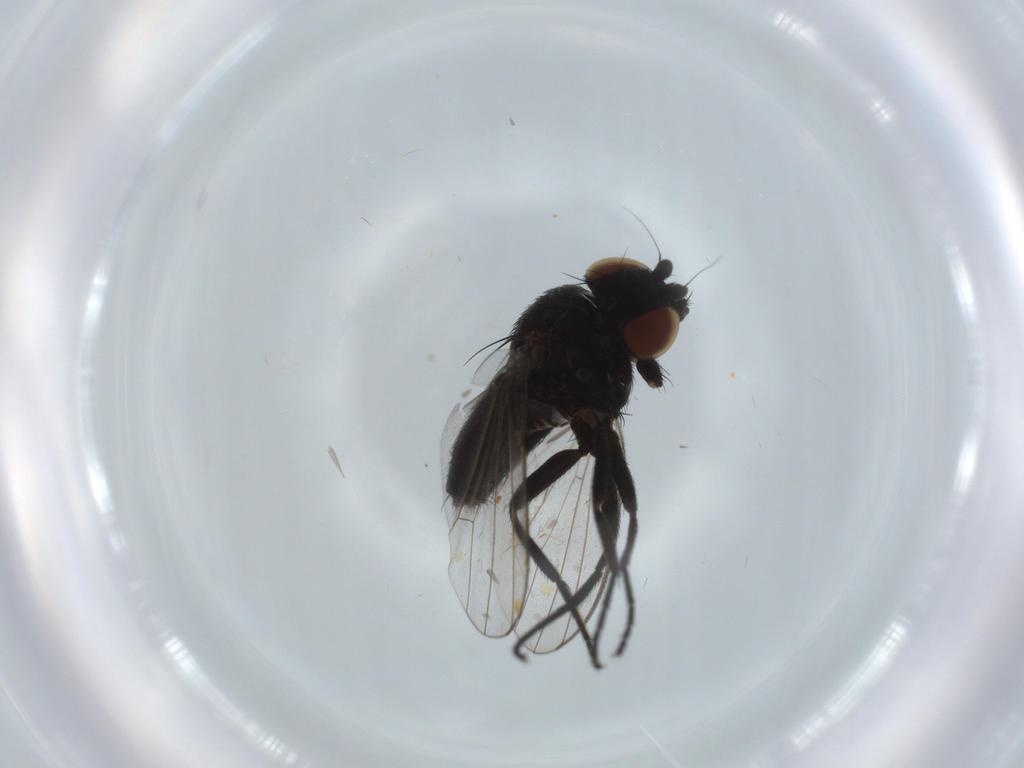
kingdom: Animalia
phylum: Arthropoda
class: Insecta
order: Diptera
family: Milichiidae
